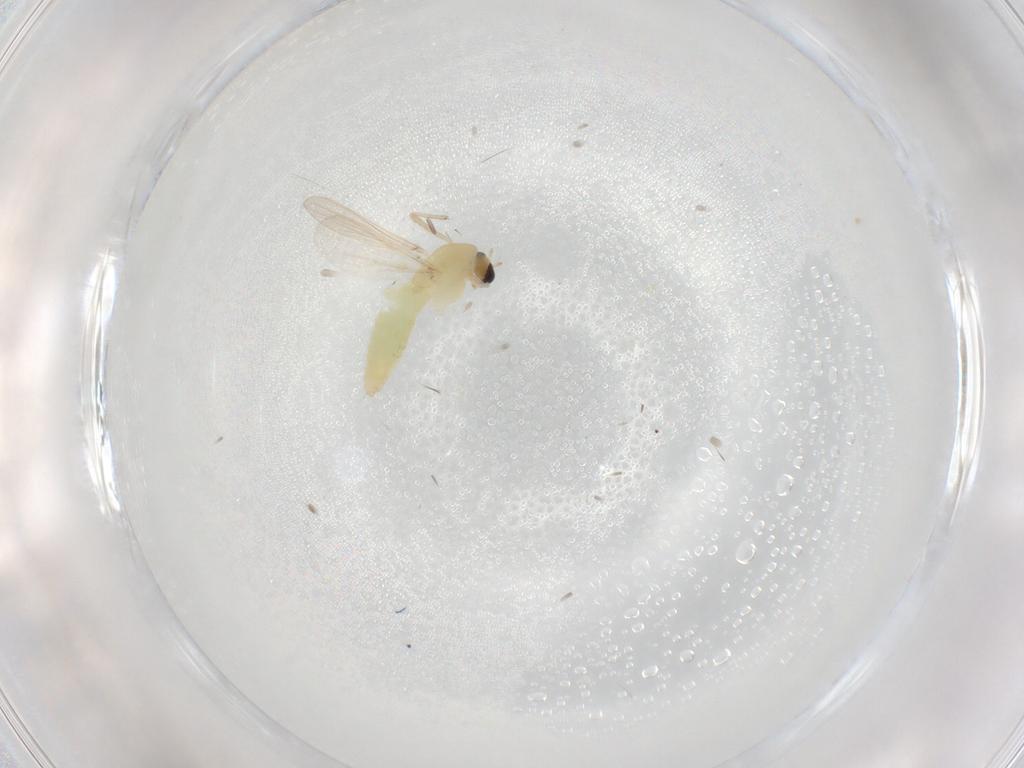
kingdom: Animalia
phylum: Arthropoda
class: Insecta
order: Diptera
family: Chironomidae
